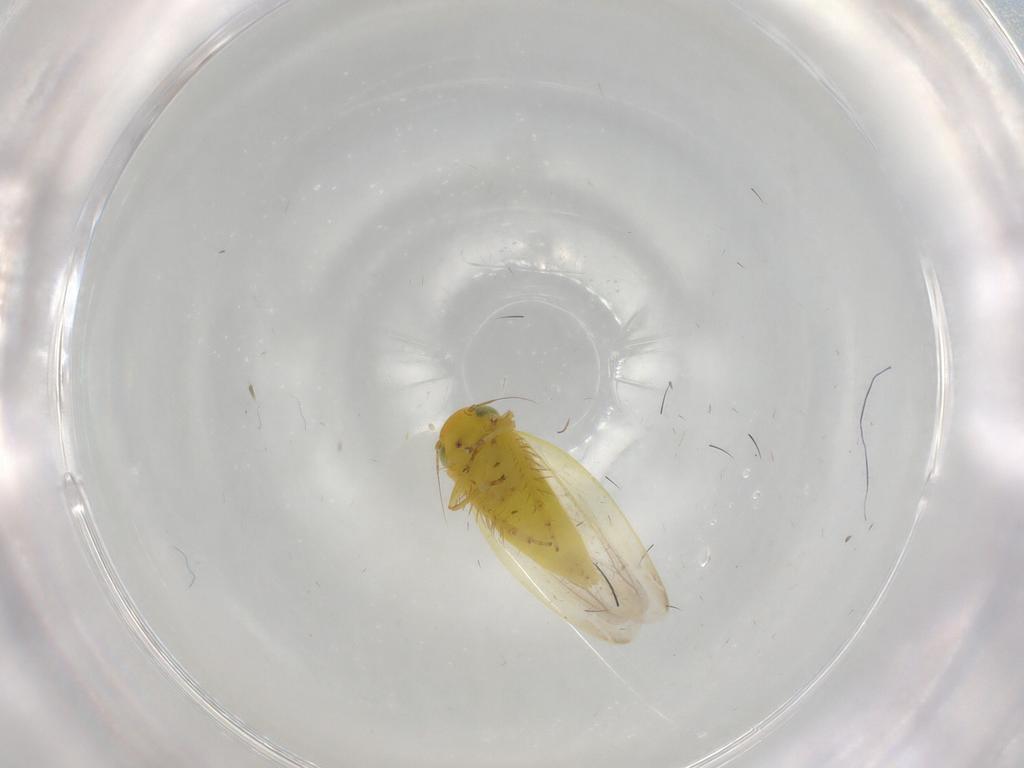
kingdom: Animalia
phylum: Arthropoda
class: Insecta
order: Hemiptera
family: Cicadellidae
